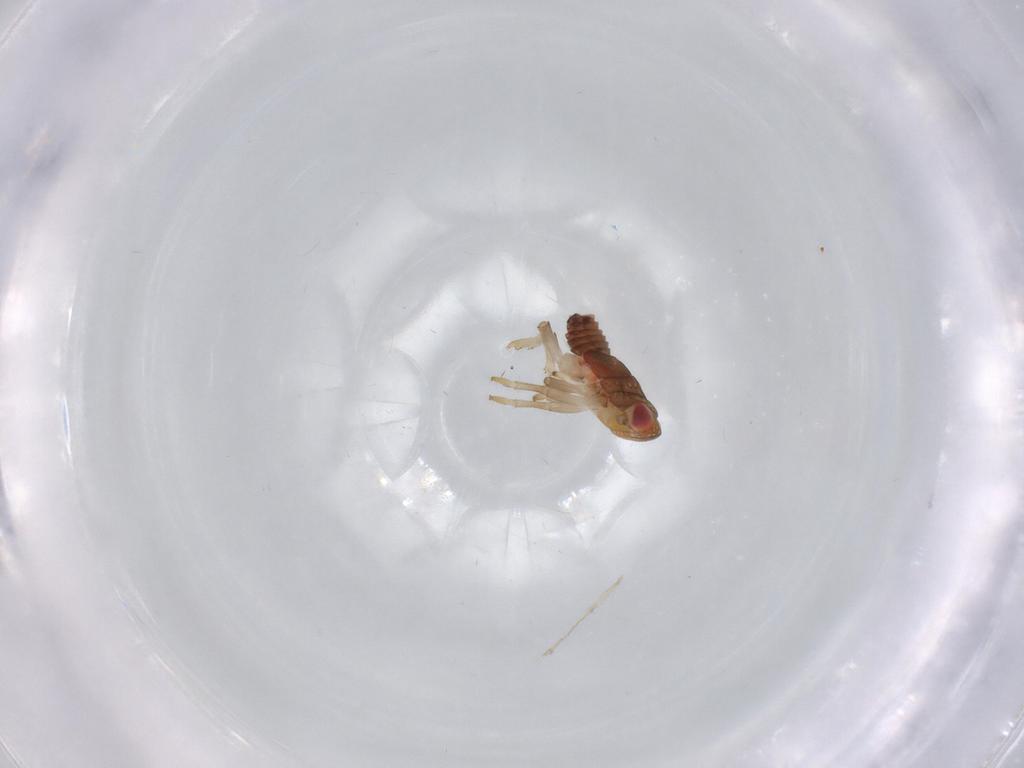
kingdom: Animalia
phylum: Arthropoda
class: Insecta
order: Hemiptera
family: Issidae
